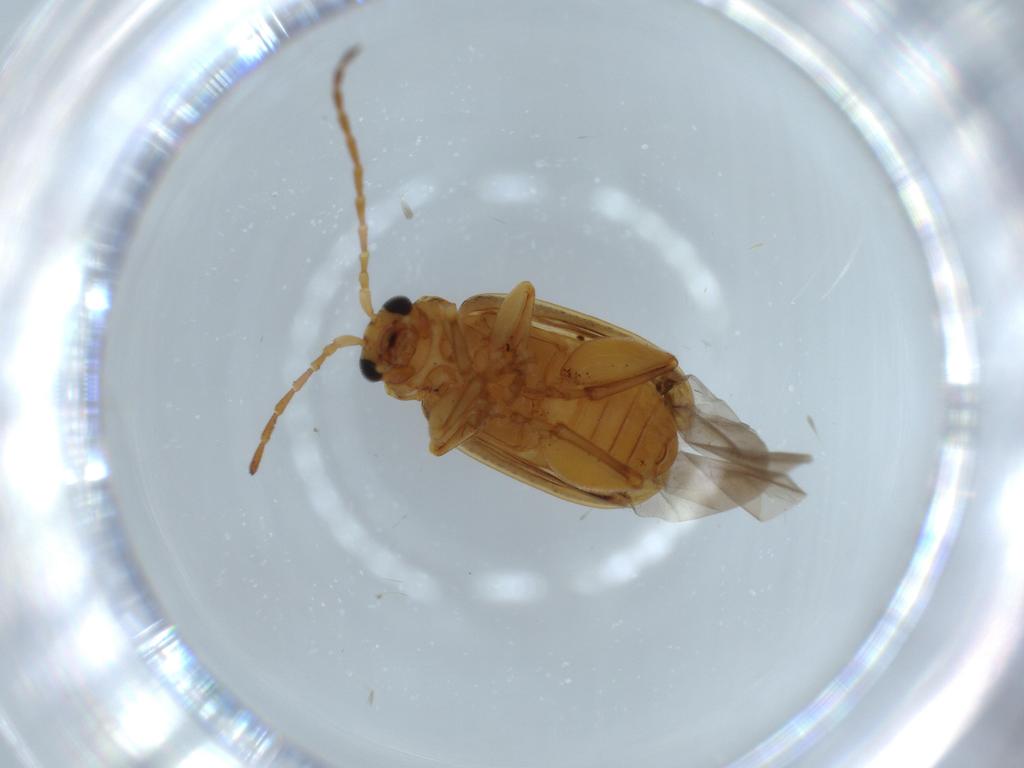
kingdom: Animalia
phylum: Arthropoda
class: Insecta
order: Coleoptera
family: Chrysomelidae
